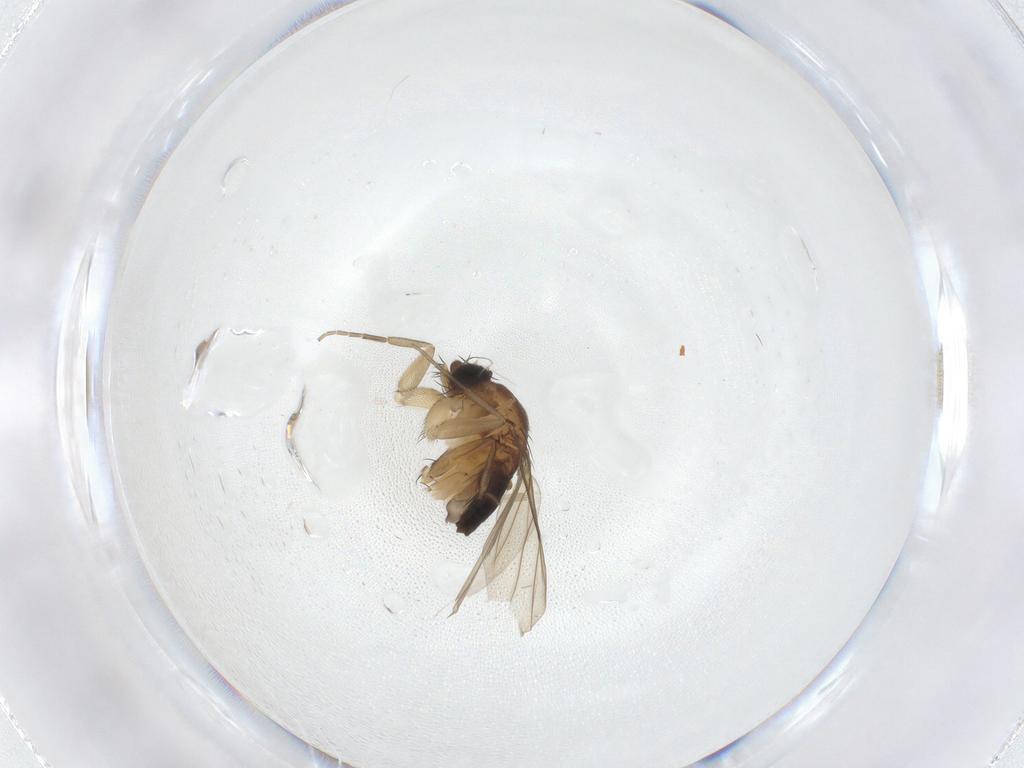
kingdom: Animalia
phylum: Arthropoda
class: Insecta
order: Diptera
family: Phoridae
